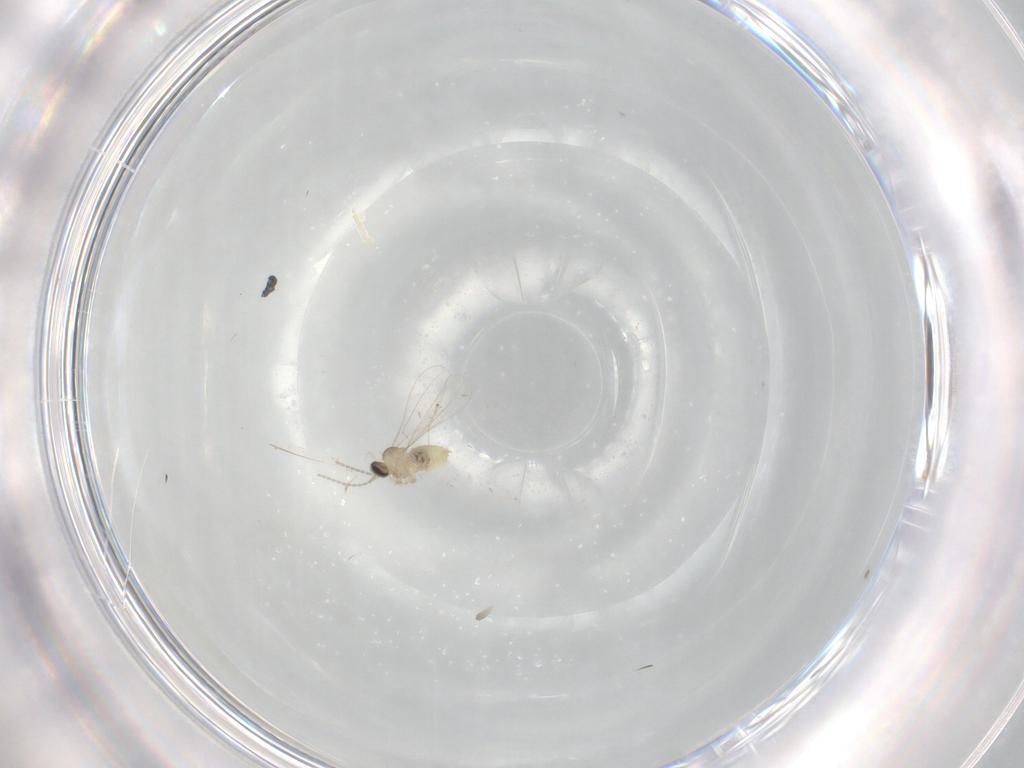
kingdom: Animalia
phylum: Arthropoda
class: Insecta
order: Diptera
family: Cecidomyiidae
